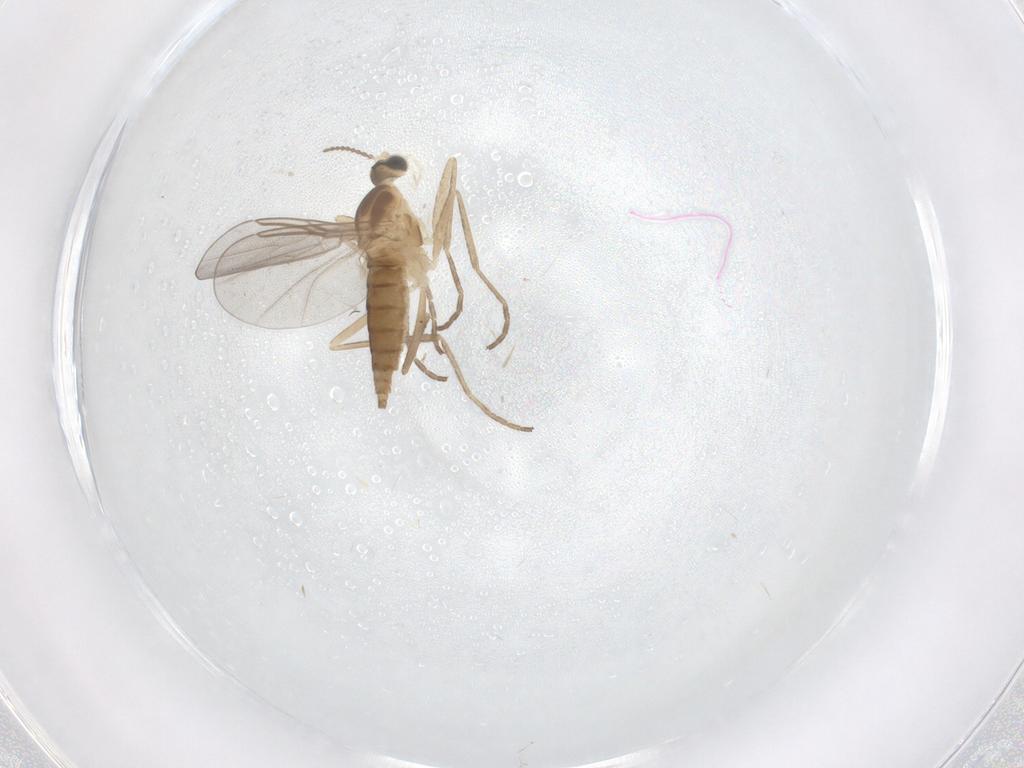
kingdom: Animalia
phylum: Arthropoda
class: Insecta
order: Diptera
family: Cecidomyiidae
